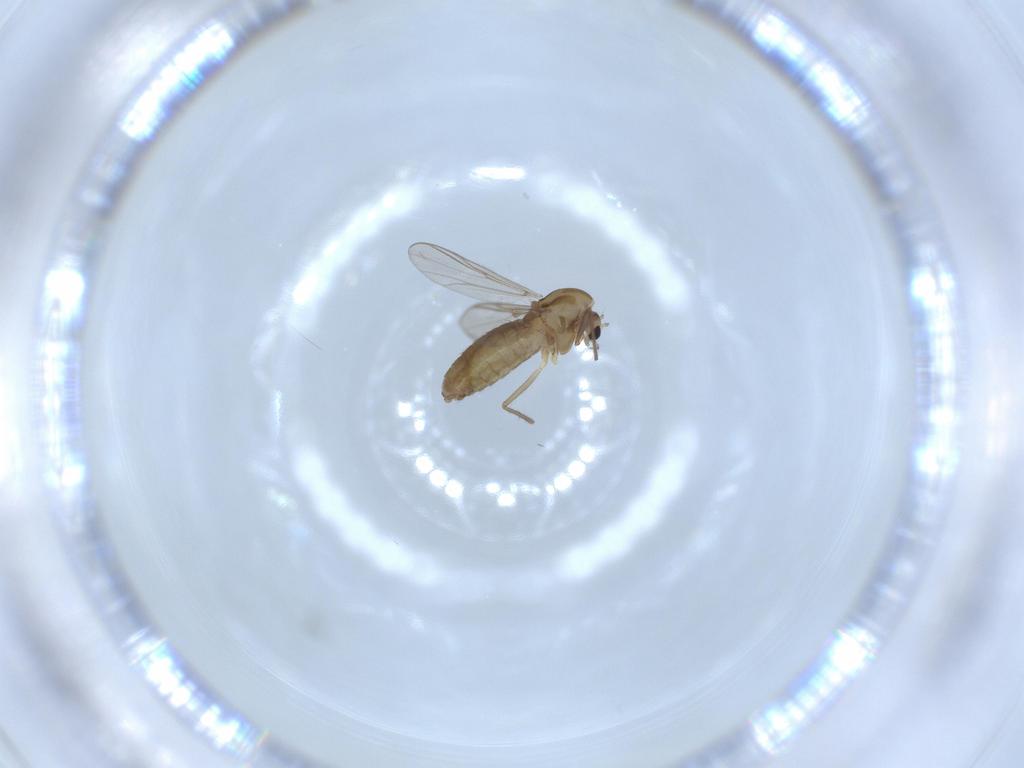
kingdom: Animalia
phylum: Arthropoda
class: Insecta
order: Diptera
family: Chironomidae
